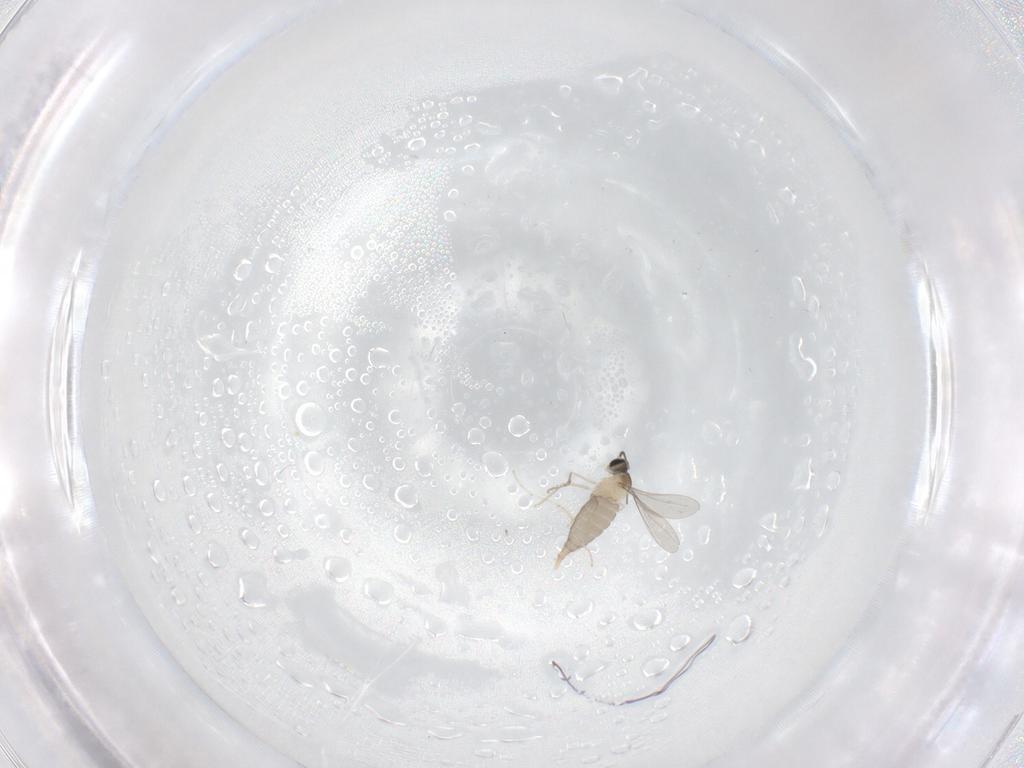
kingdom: Animalia
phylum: Arthropoda
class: Insecta
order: Diptera
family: Cecidomyiidae
